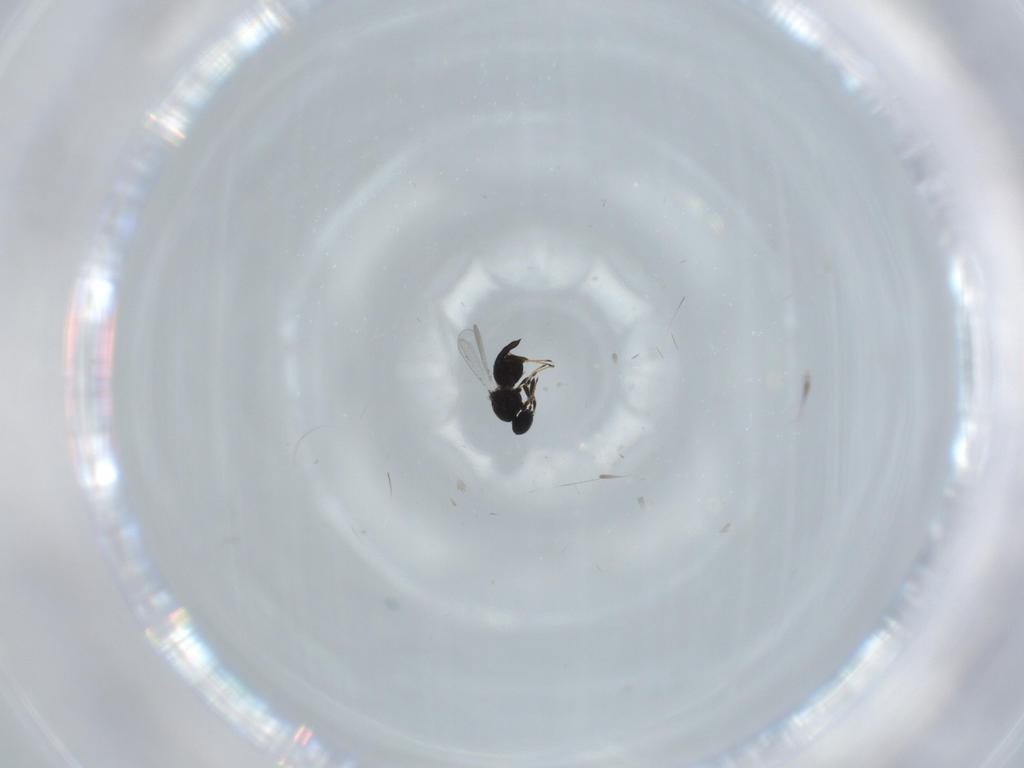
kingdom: Animalia
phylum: Arthropoda
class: Insecta
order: Hymenoptera
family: Platygastridae
